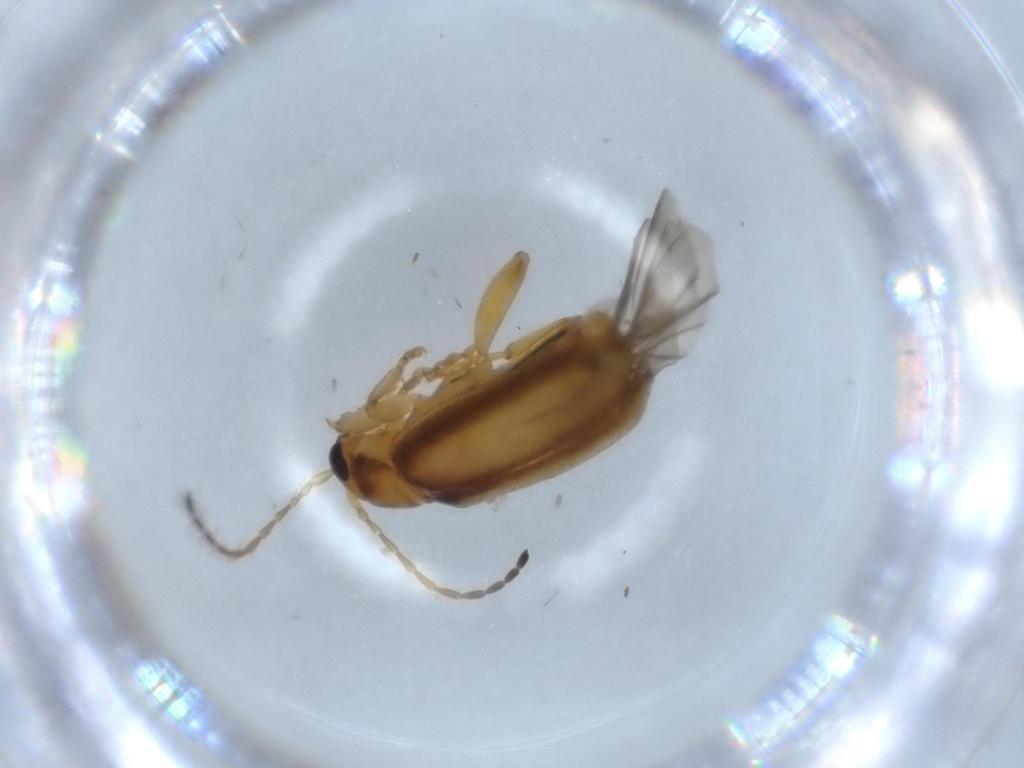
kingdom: Animalia
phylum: Arthropoda
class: Insecta
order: Coleoptera
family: Chrysomelidae
